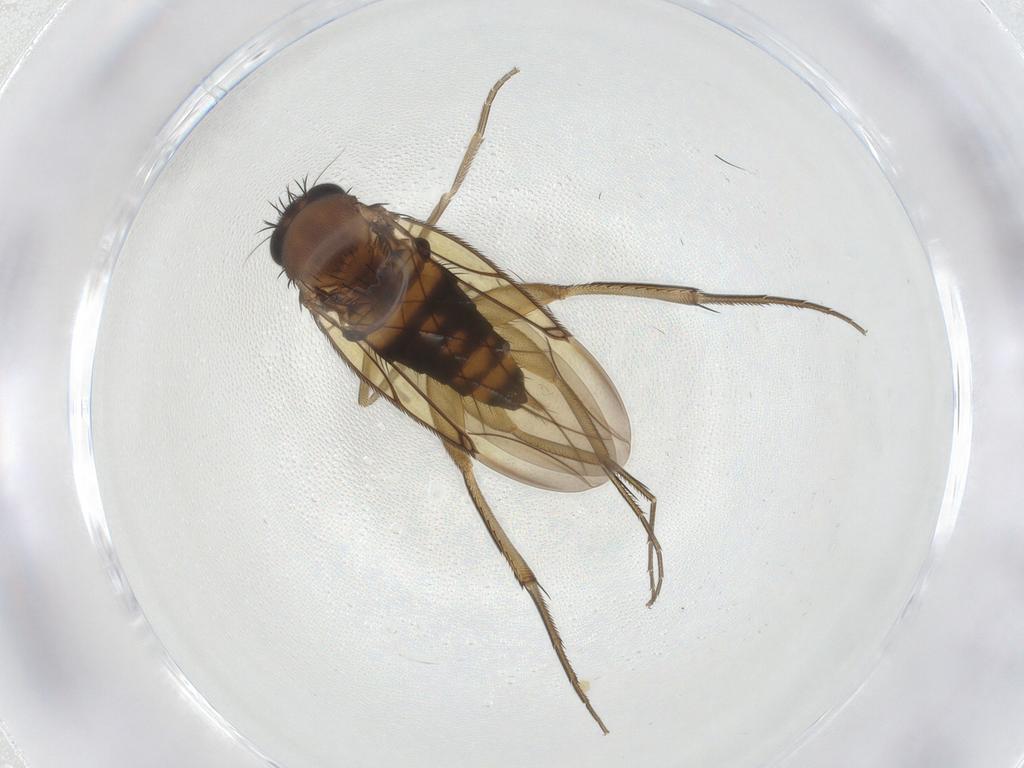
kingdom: Animalia
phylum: Arthropoda
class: Insecta
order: Diptera
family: Phoridae
